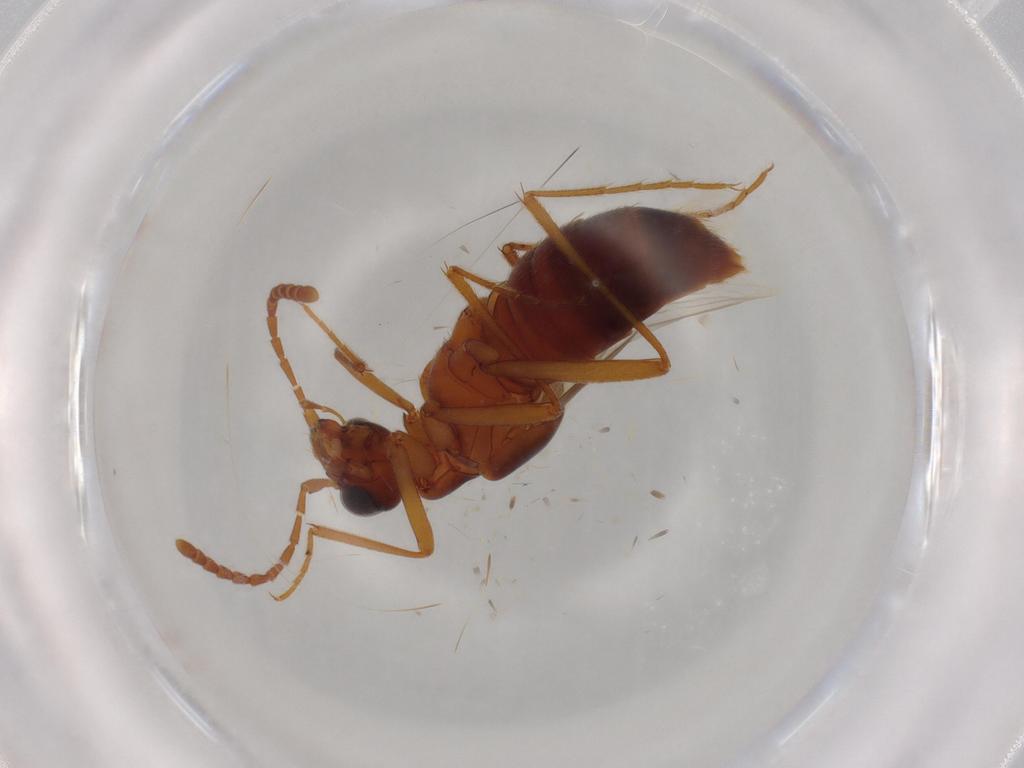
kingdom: Animalia
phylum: Arthropoda
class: Insecta
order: Coleoptera
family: Staphylinidae
